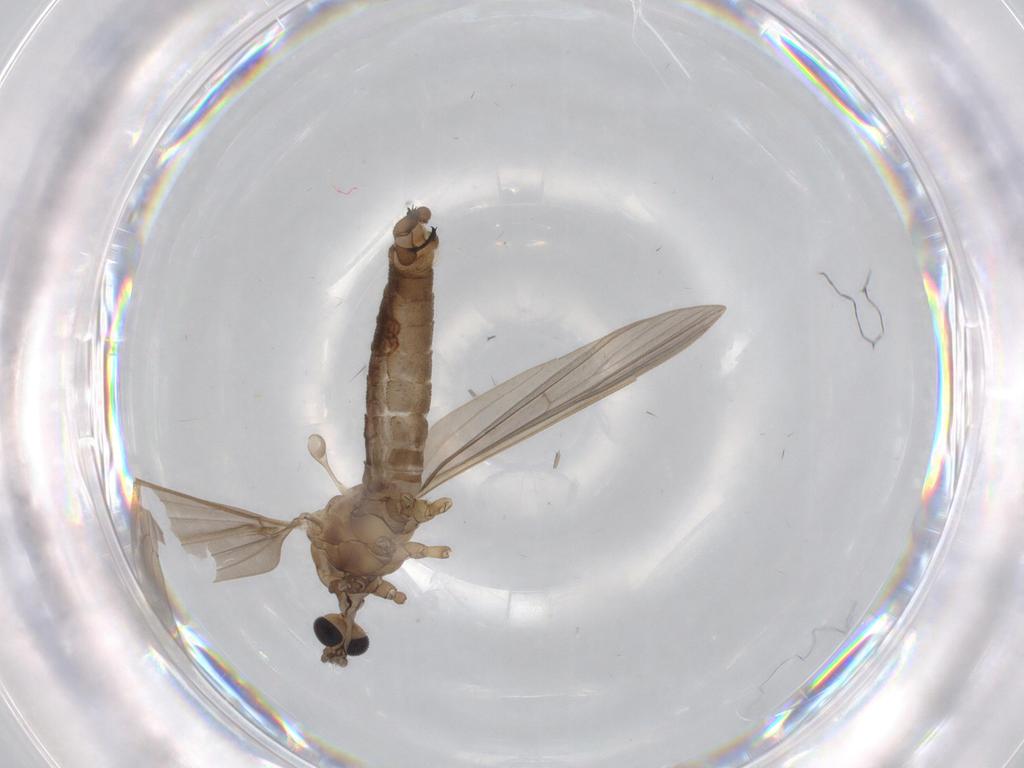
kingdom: Animalia
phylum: Arthropoda
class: Insecta
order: Diptera
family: Cecidomyiidae
